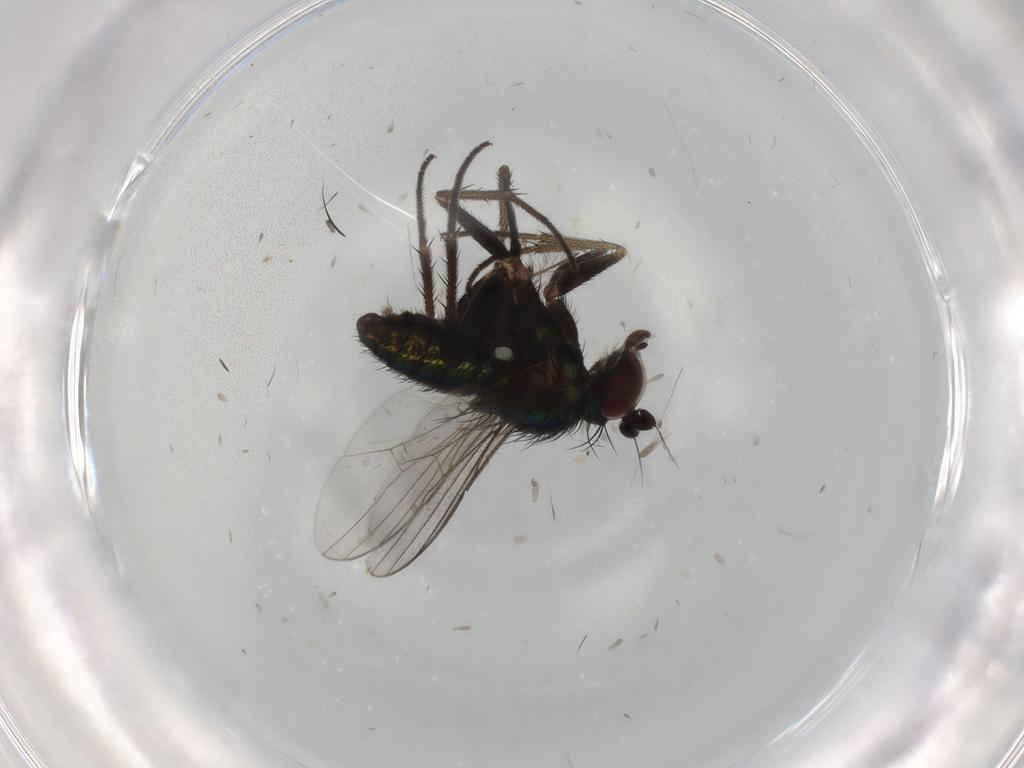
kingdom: Animalia
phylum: Arthropoda
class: Insecta
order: Diptera
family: Dolichopodidae
